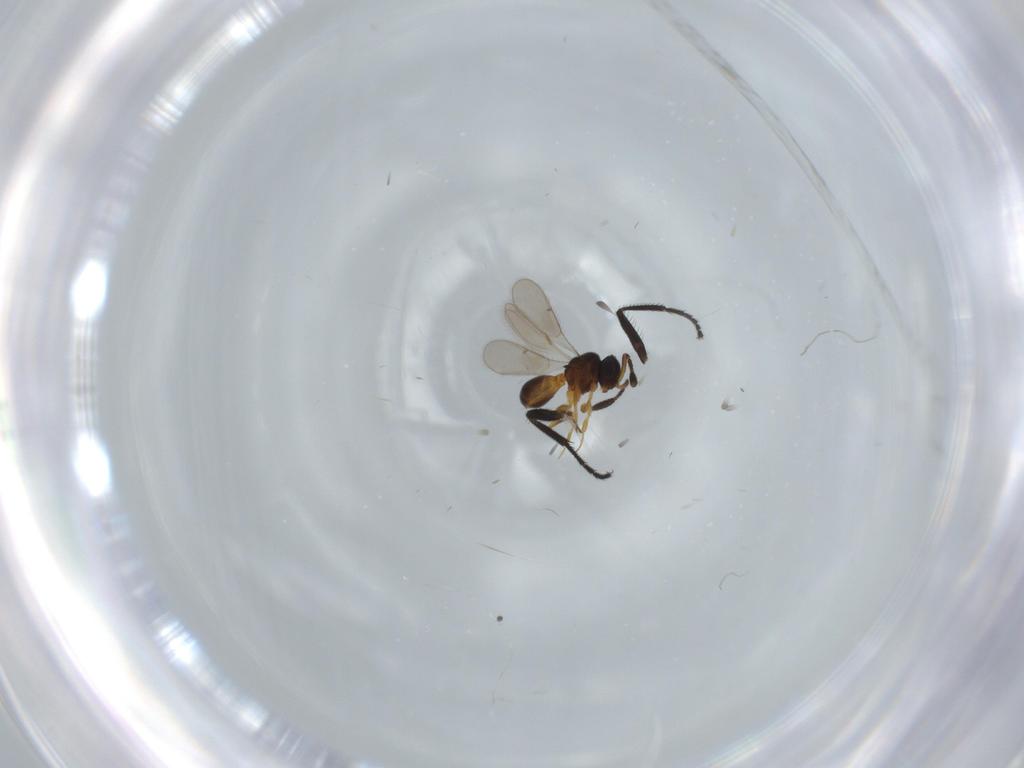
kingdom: Animalia
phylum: Arthropoda
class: Insecta
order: Hymenoptera
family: Scelionidae
